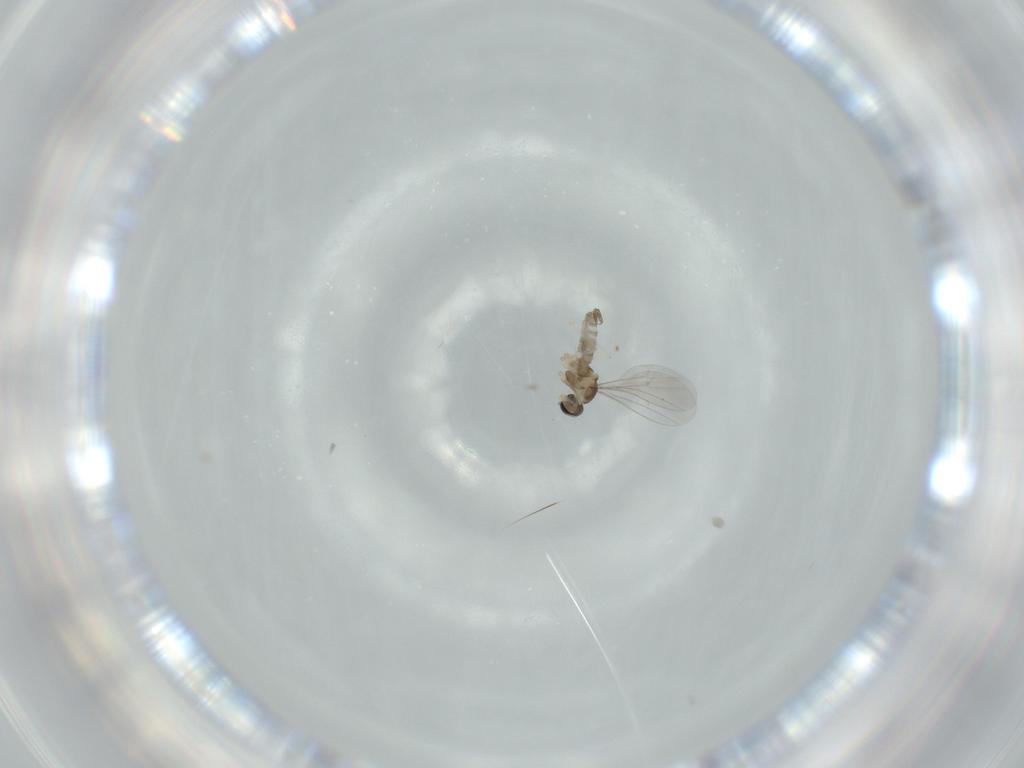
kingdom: Animalia
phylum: Arthropoda
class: Insecta
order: Diptera
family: Cecidomyiidae
